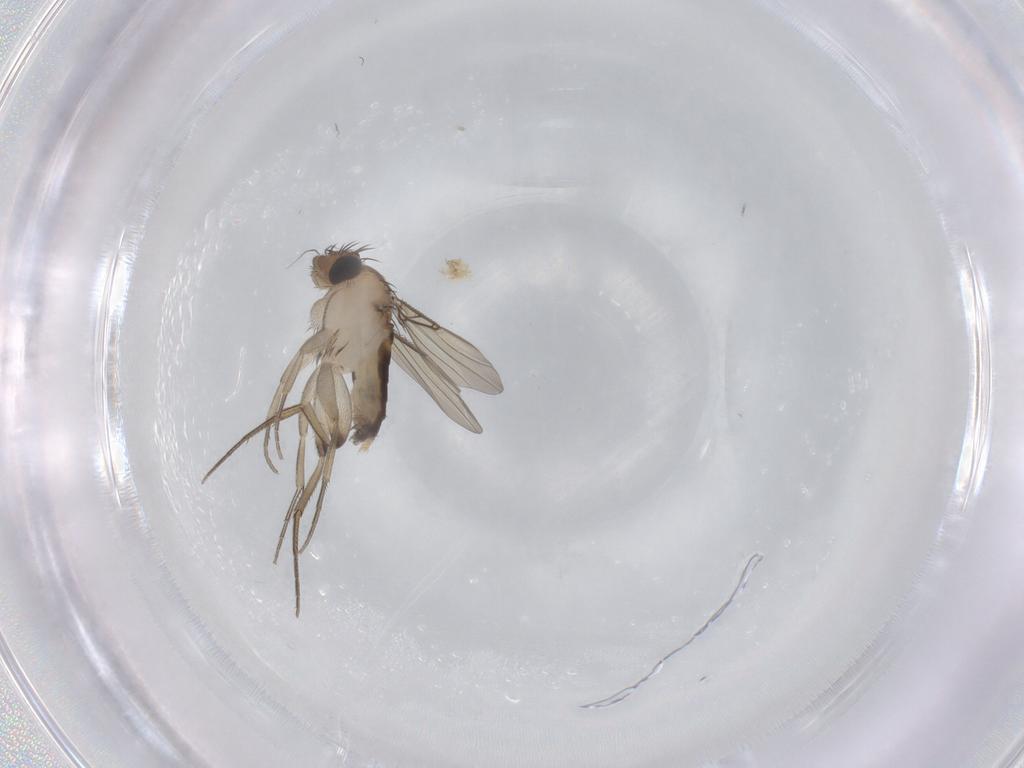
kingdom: Animalia
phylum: Arthropoda
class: Insecta
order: Diptera
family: Phoridae
